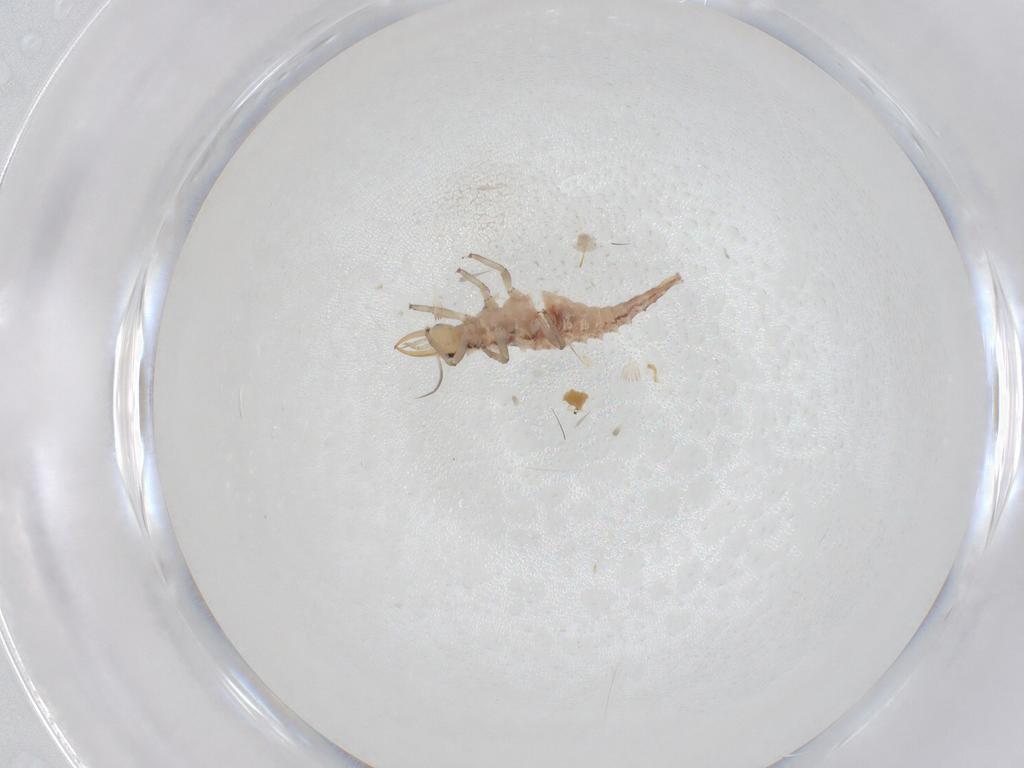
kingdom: Animalia
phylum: Arthropoda
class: Insecta
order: Neuroptera
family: Chrysopidae
